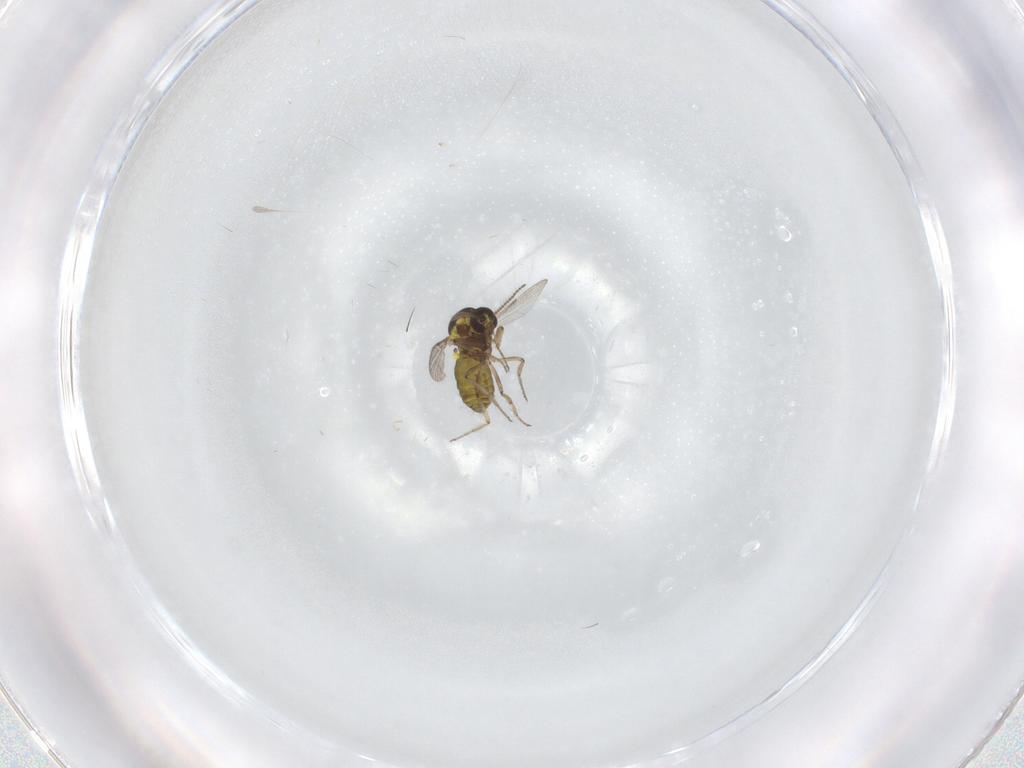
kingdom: Animalia
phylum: Arthropoda
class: Insecta
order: Diptera
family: Ceratopogonidae
